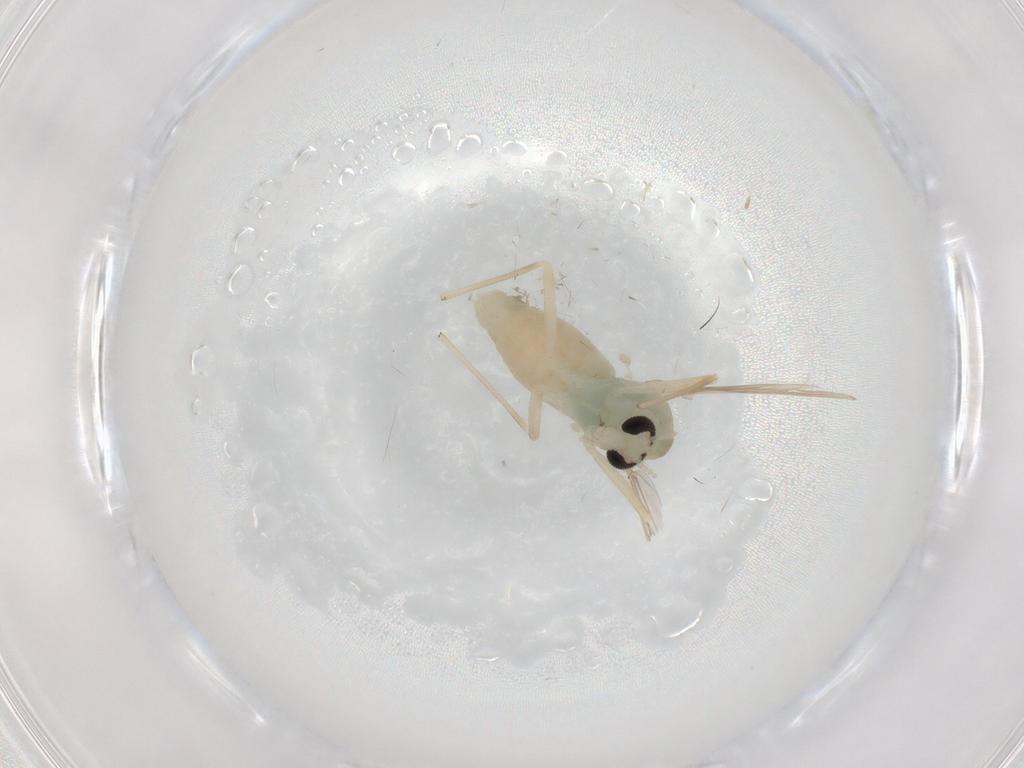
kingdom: Animalia
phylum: Arthropoda
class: Insecta
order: Diptera
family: Chironomidae
